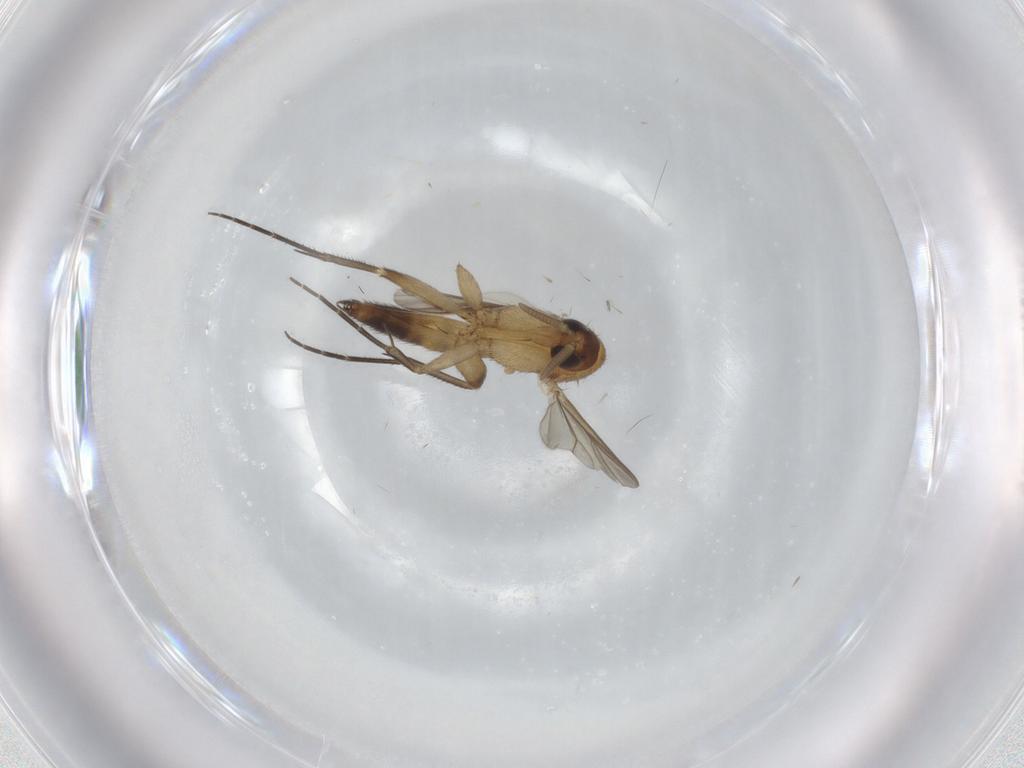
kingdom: Animalia
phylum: Arthropoda
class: Insecta
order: Diptera
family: Mycetophilidae
